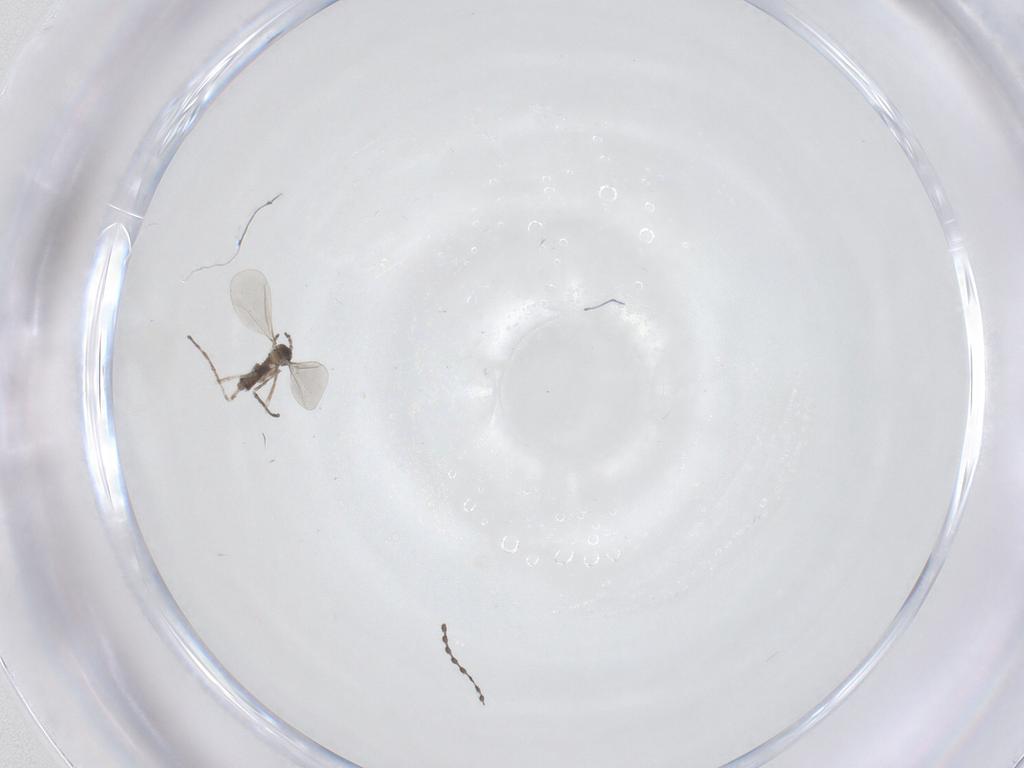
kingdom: Animalia
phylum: Arthropoda
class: Insecta
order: Diptera
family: Cecidomyiidae
